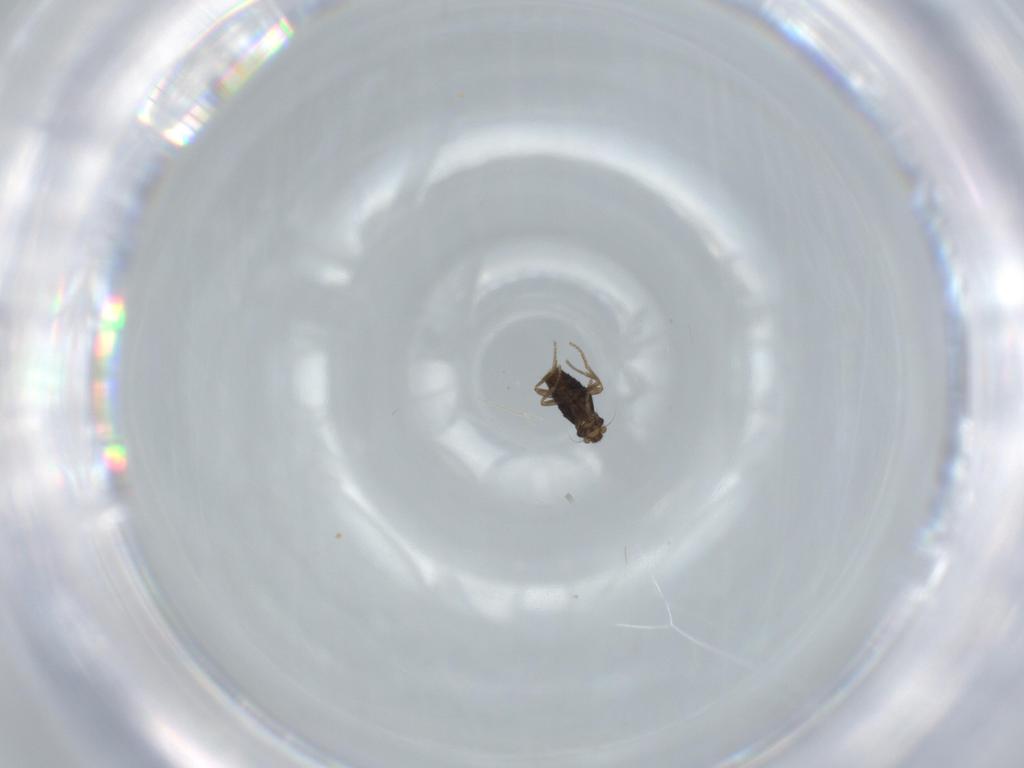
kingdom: Animalia
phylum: Arthropoda
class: Insecta
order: Diptera
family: Phoridae
